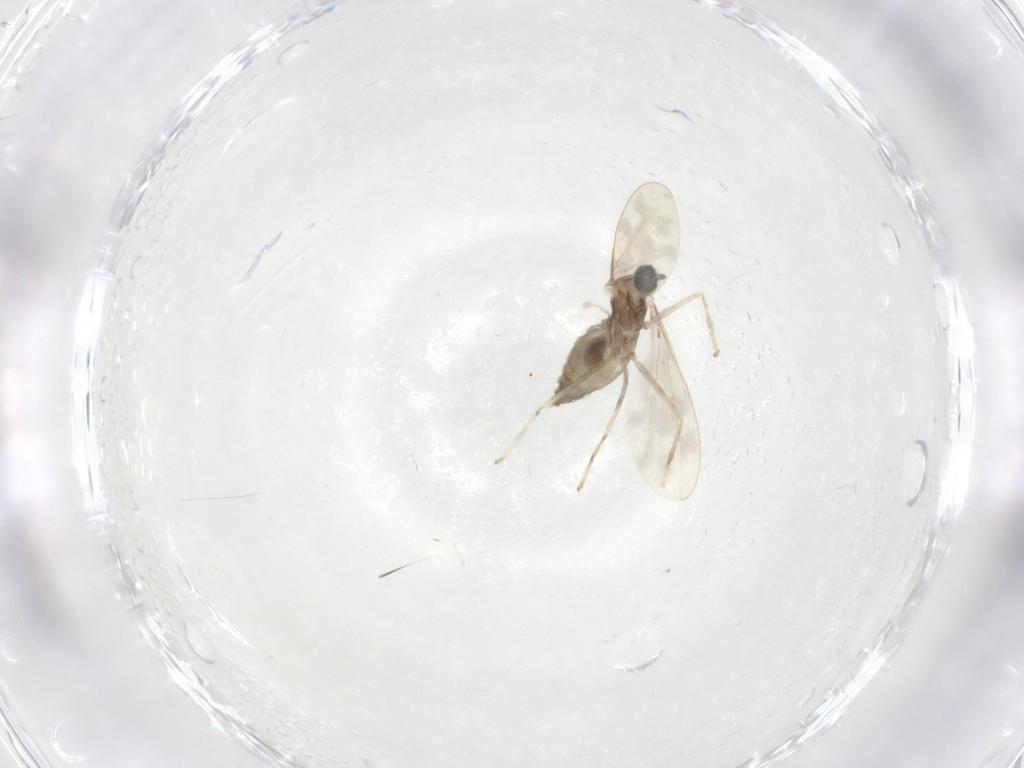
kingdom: Animalia
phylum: Arthropoda
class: Insecta
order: Diptera
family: Cecidomyiidae
